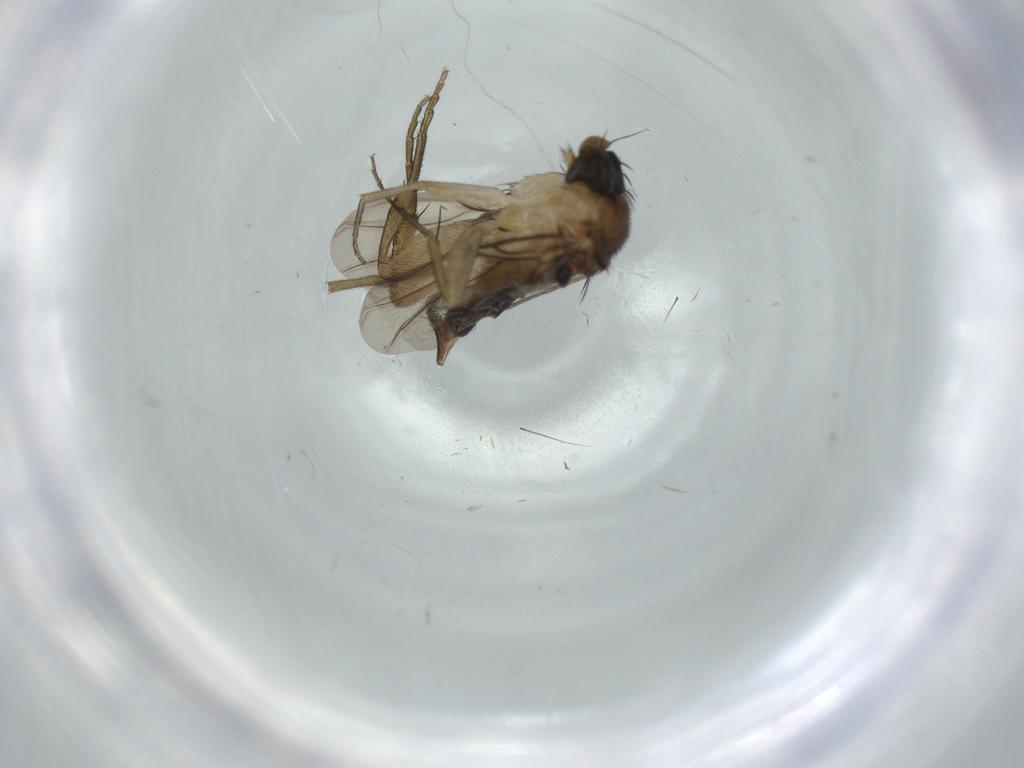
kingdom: Animalia
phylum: Arthropoda
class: Insecta
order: Diptera
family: Phoridae
